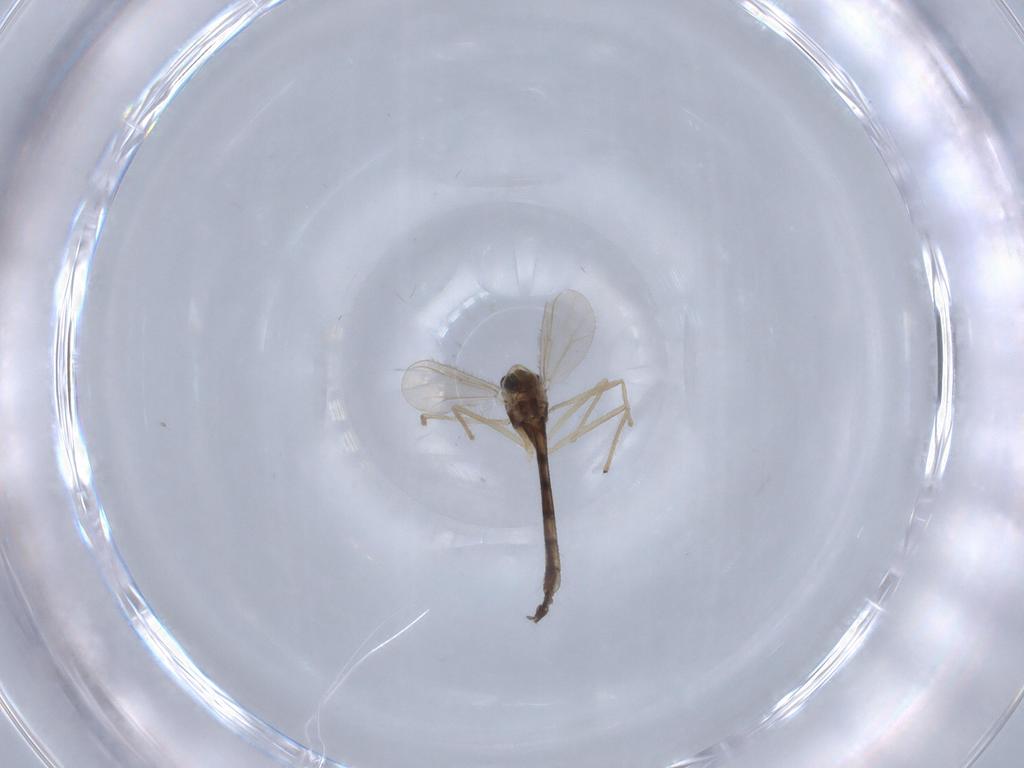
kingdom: Animalia
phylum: Arthropoda
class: Insecta
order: Diptera
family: Chironomidae
